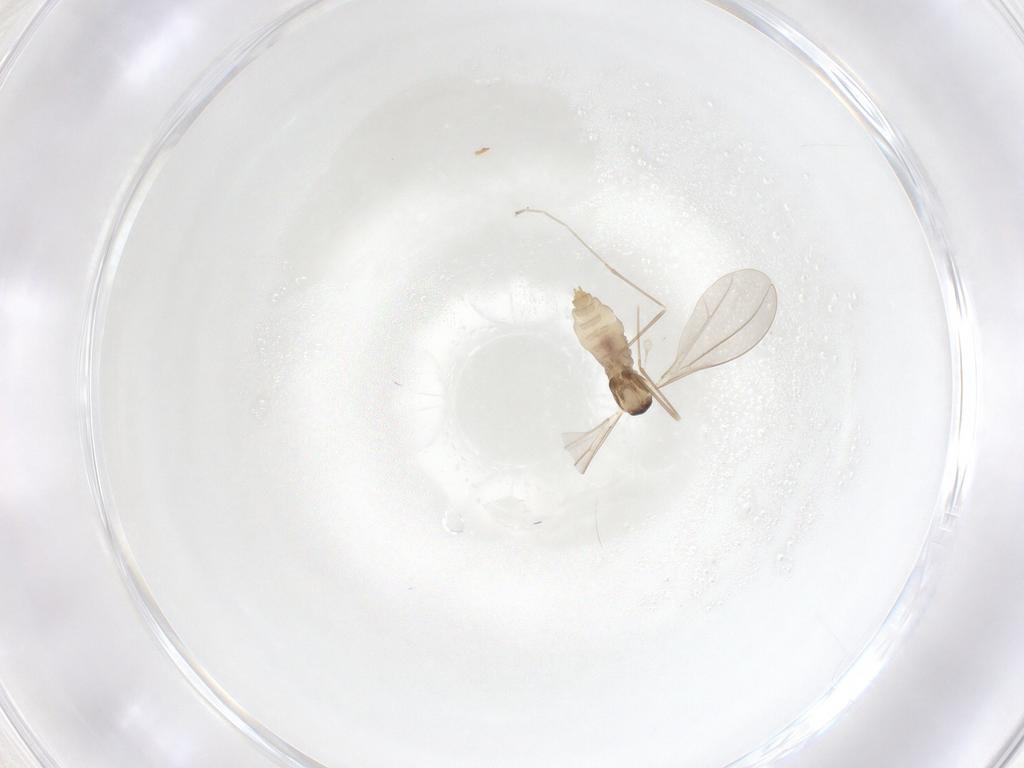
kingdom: Animalia
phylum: Arthropoda
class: Insecta
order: Diptera
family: Cecidomyiidae
